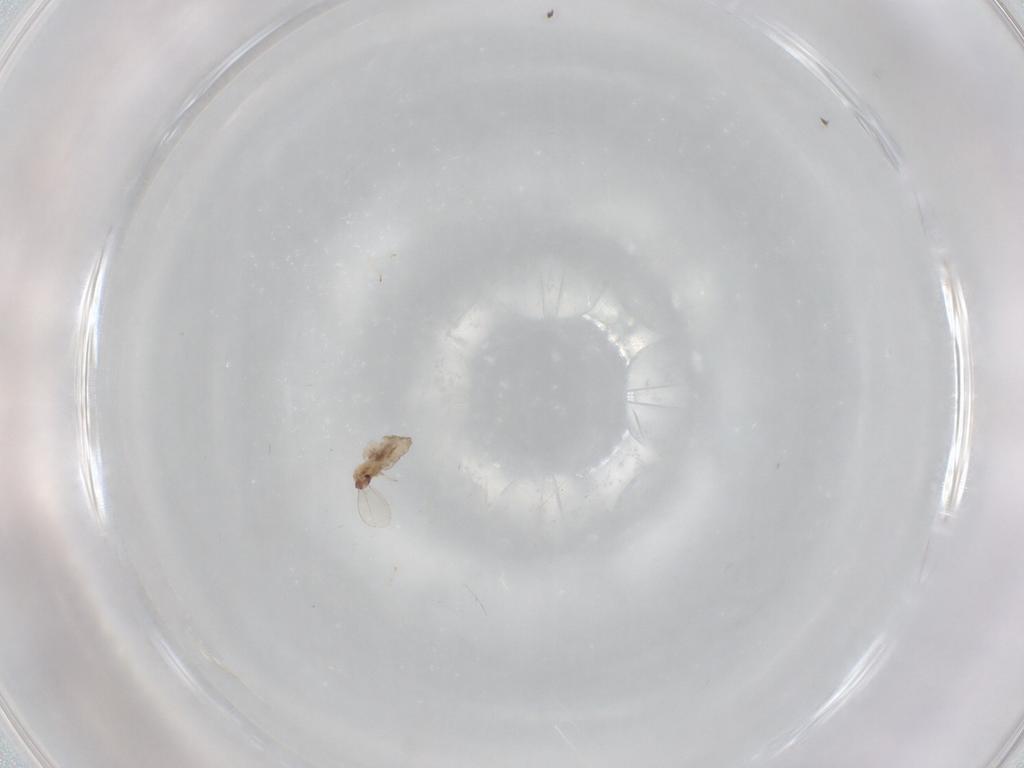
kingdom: Animalia
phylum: Arthropoda
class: Insecta
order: Diptera
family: Cecidomyiidae
